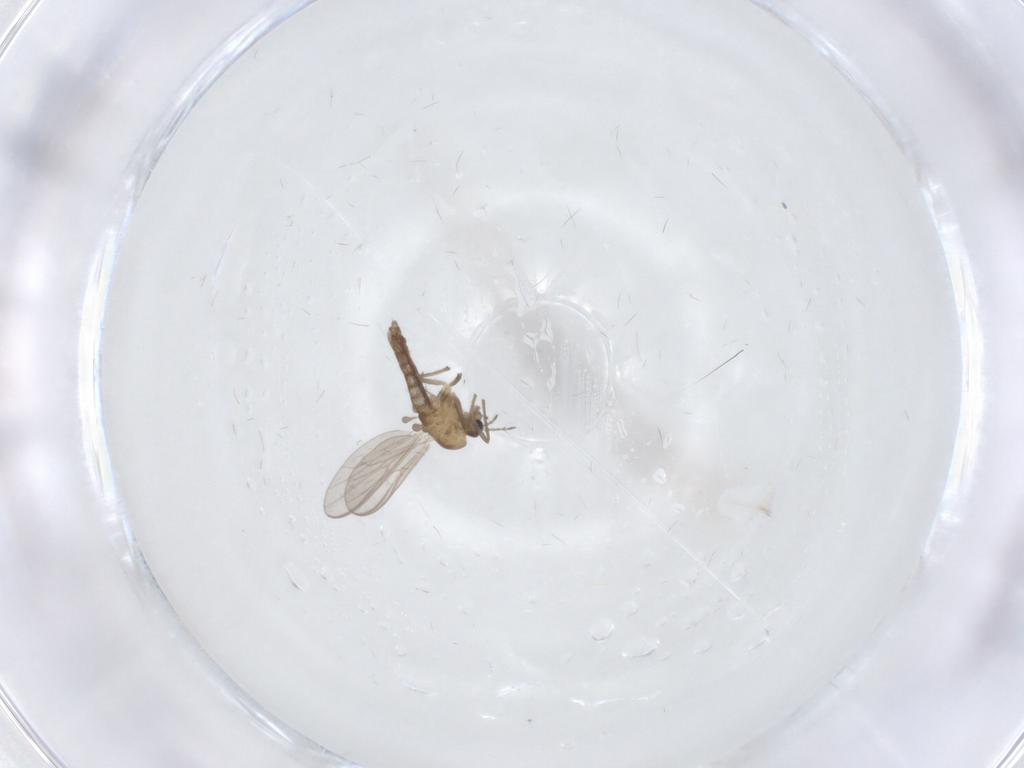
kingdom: Animalia
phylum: Arthropoda
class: Insecta
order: Diptera
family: Chironomidae
